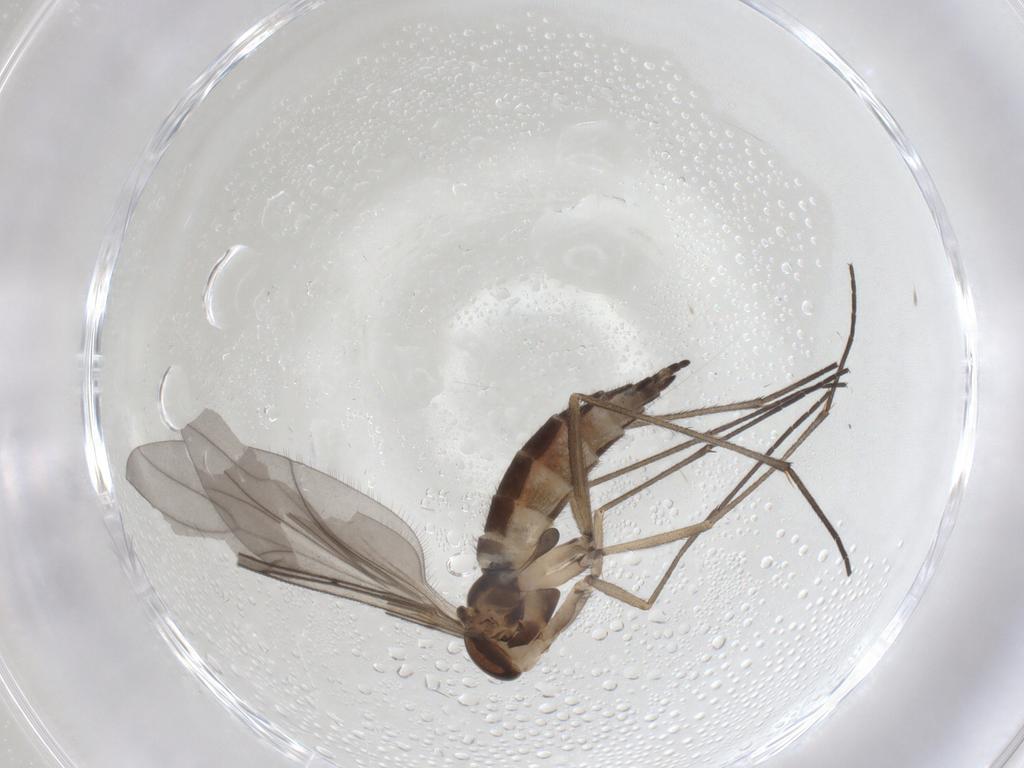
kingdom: Animalia
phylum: Arthropoda
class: Insecta
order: Diptera
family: Sciaridae
